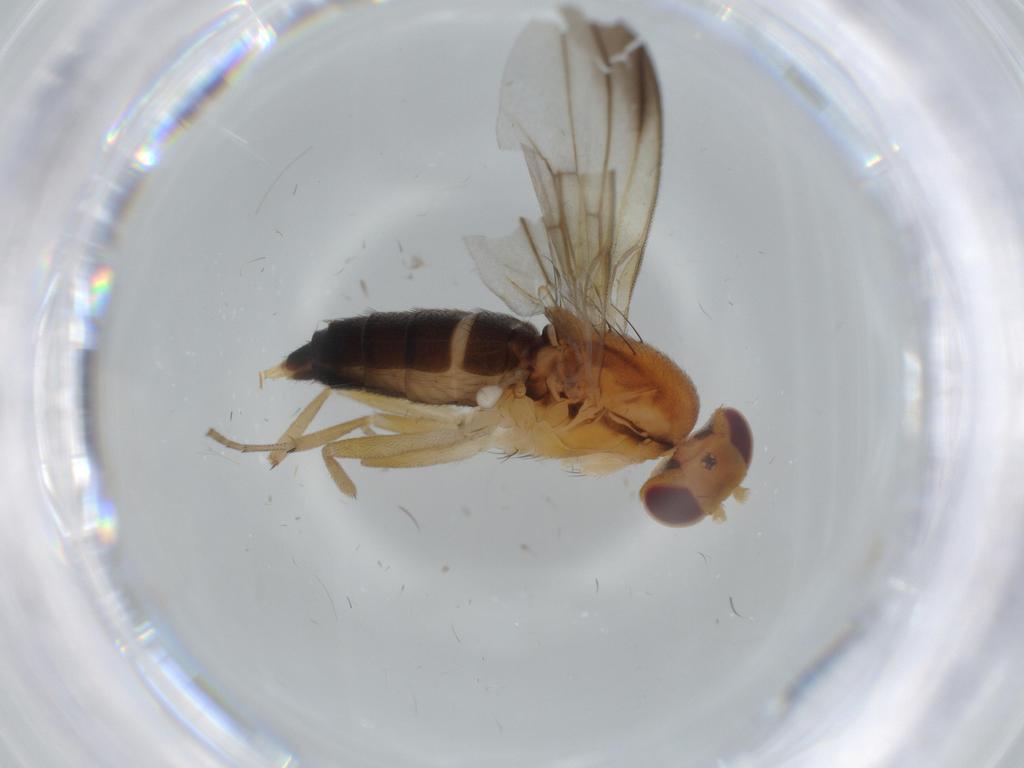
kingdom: Animalia
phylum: Arthropoda
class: Insecta
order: Diptera
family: Clusiidae
